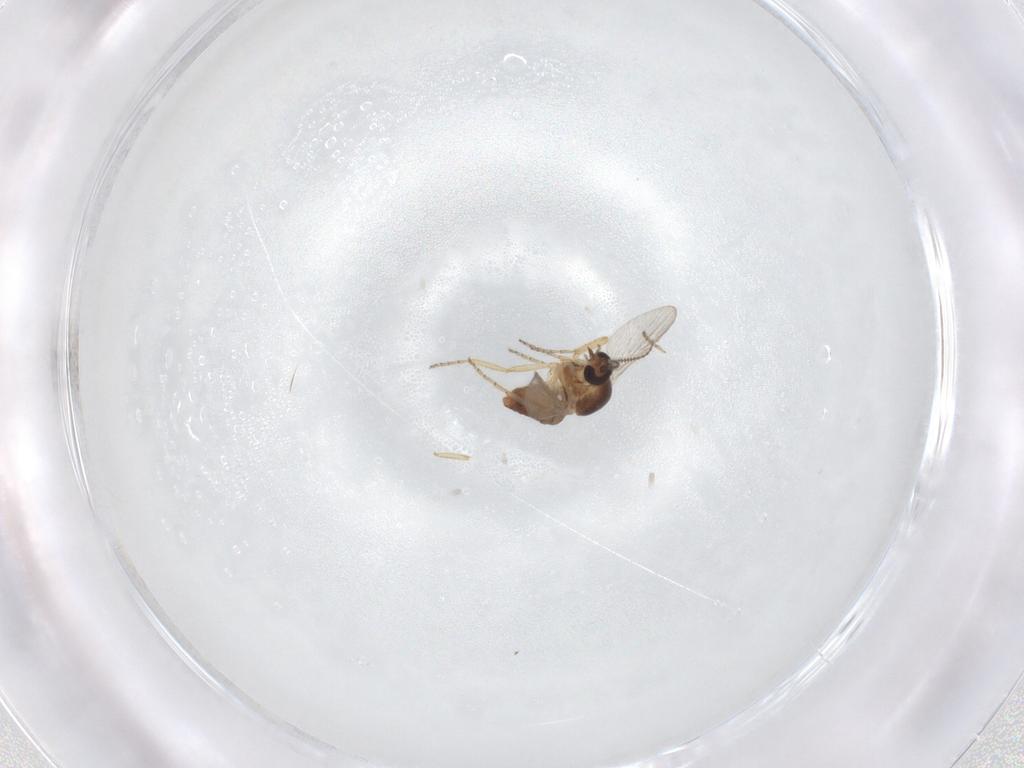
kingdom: Animalia
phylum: Arthropoda
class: Insecta
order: Diptera
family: Ceratopogonidae
